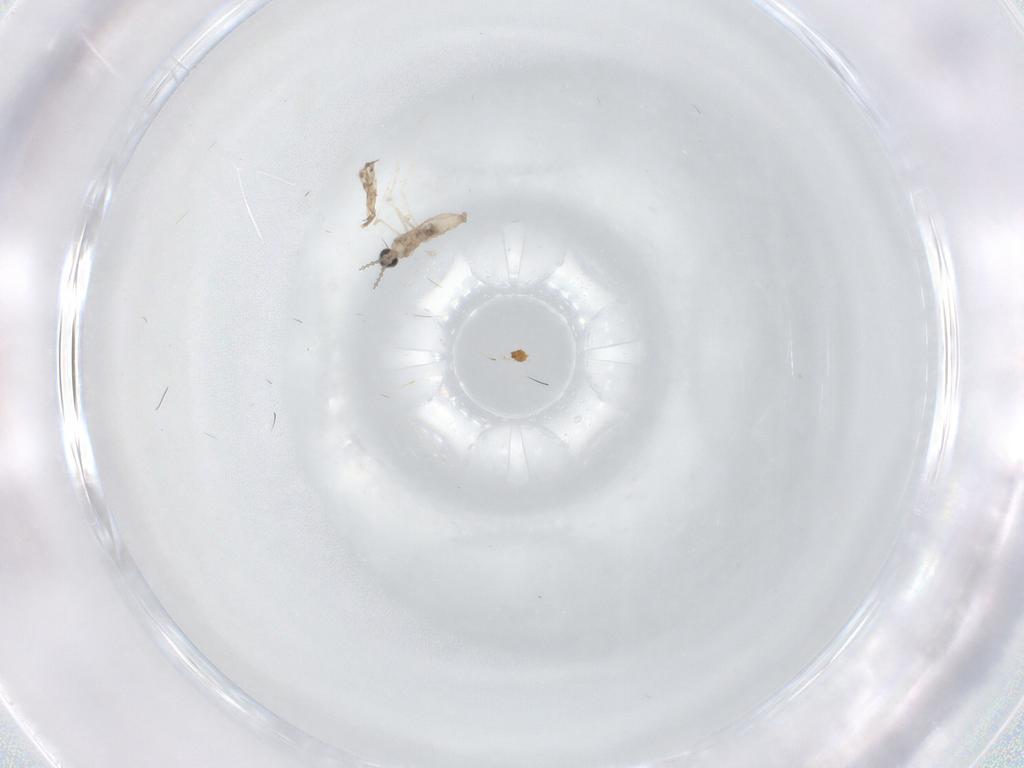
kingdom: Animalia
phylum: Arthropoda
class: Insecta
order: Diptera
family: Cecidomyiidae
